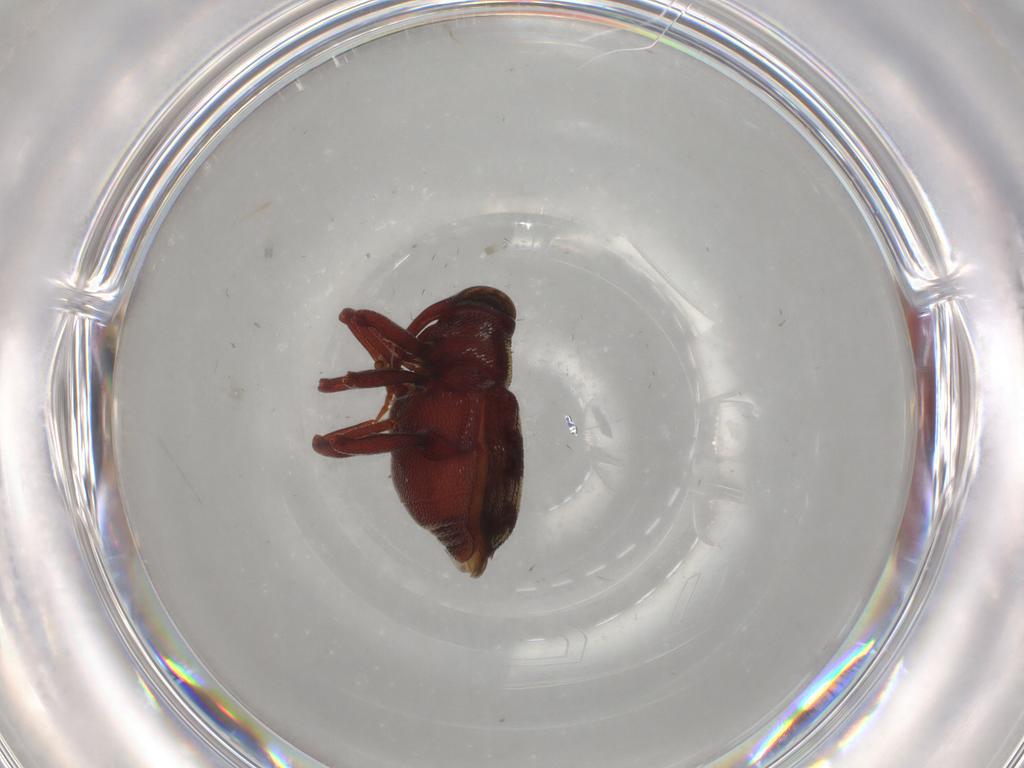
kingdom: Animalia
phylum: Arthropoda
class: Insecta
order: Coleoptera
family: Curculionidae
